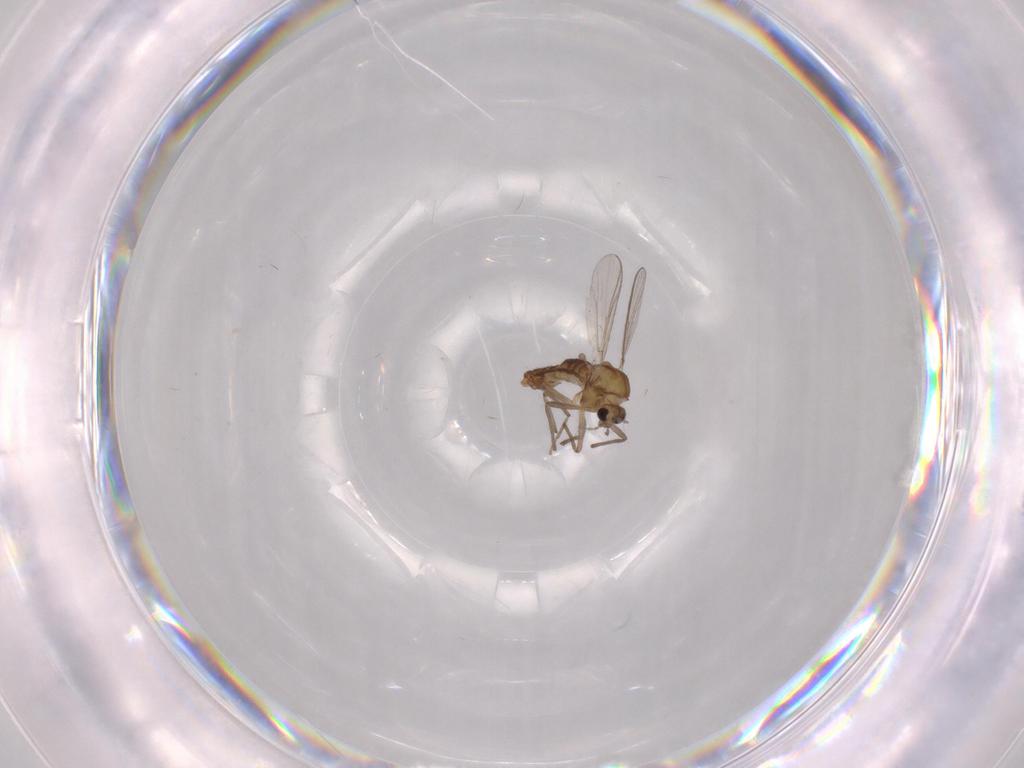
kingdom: Animalia
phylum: Arthropoda
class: Insecta
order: Diptera
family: Chironomidae
